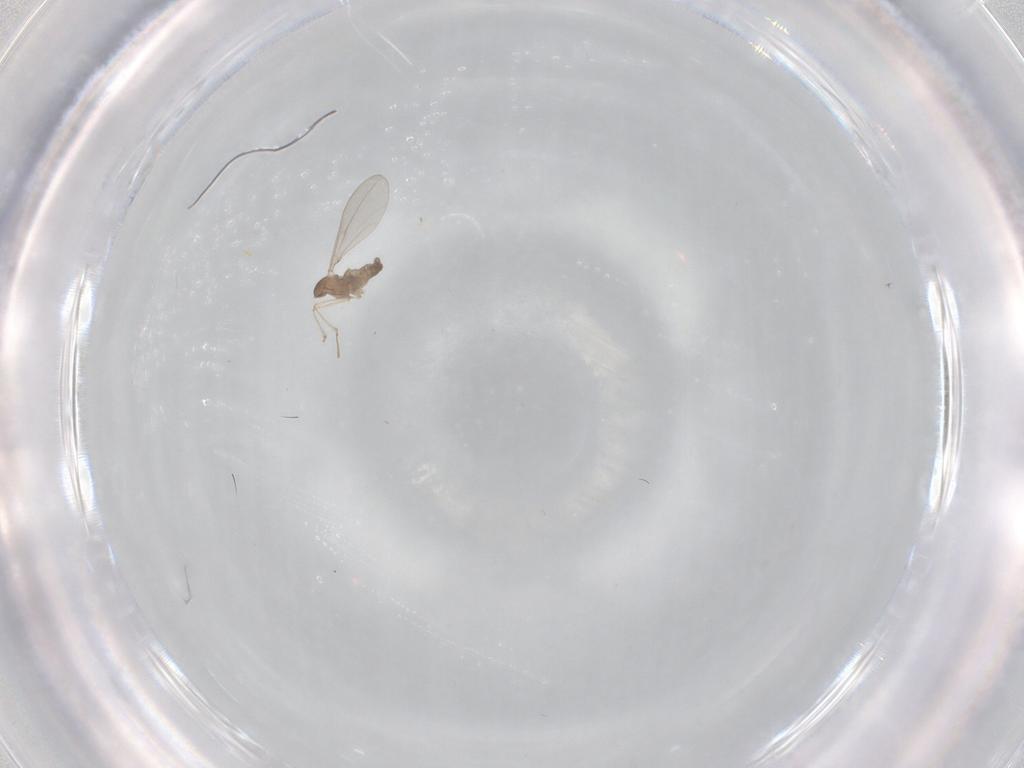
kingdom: Animalia
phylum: Arthropoda
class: Insecta
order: Diptera
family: Cecidomyiidae
